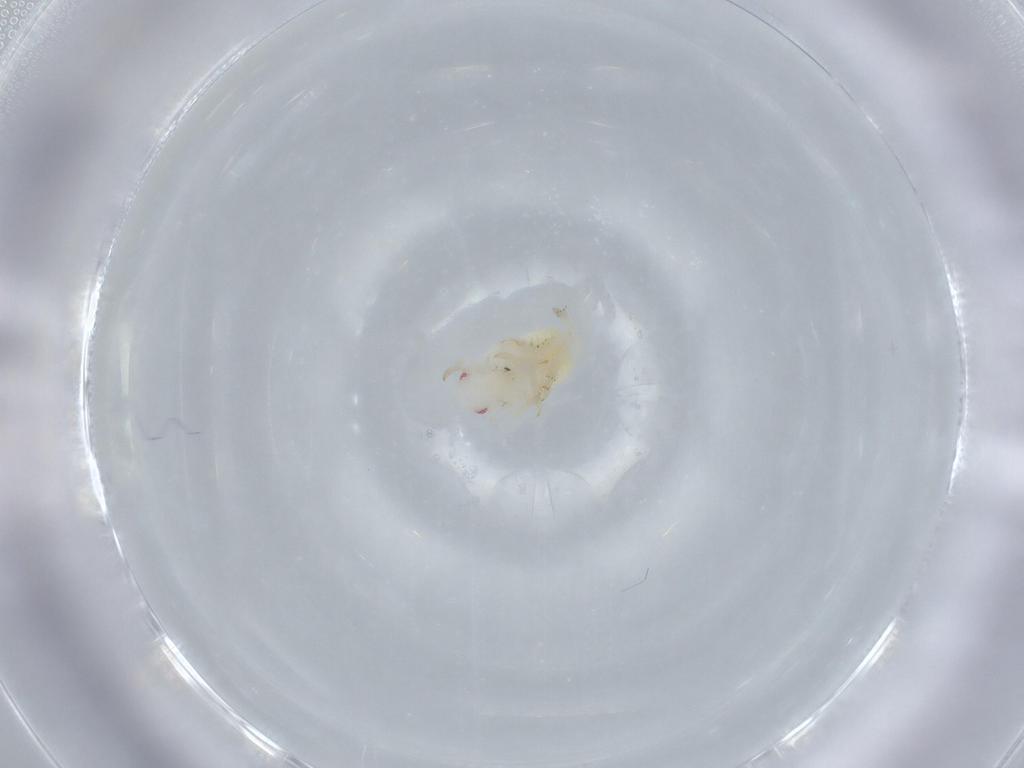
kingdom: Animalia
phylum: Arthropoda
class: Insecta
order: Hemiptera
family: Flatidae
